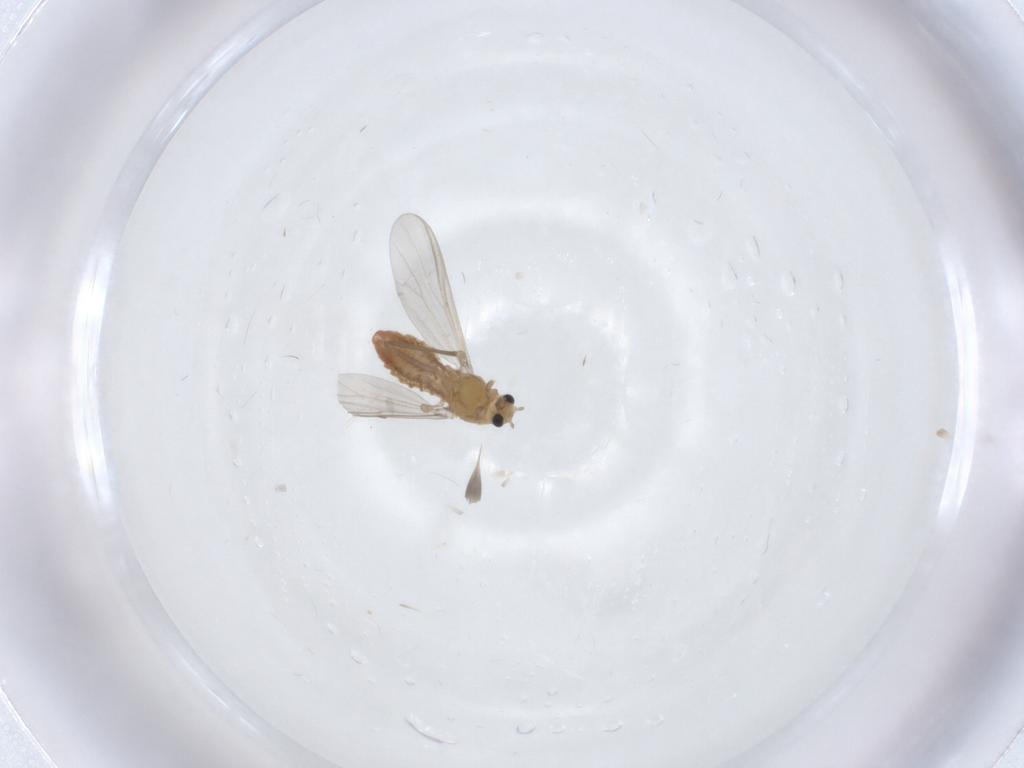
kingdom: Animalia
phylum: Arthropoda
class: Insecta
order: Diptera
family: Chironomidae
